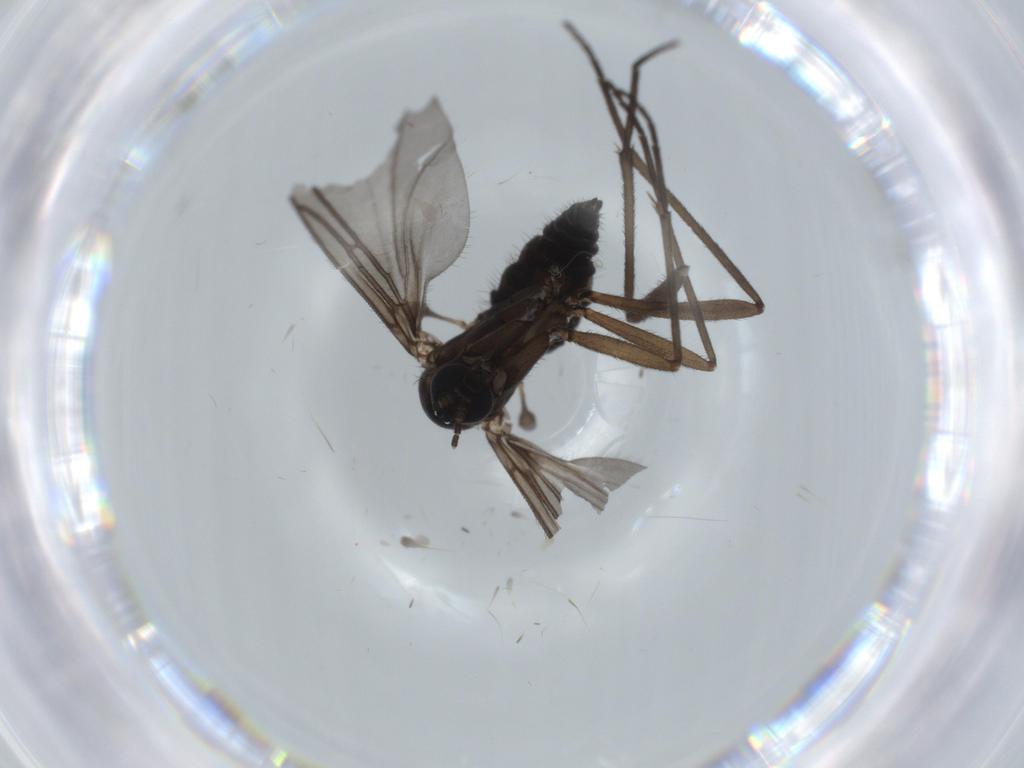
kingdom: Animalia
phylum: Arthropoda
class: Insecta
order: Diptera
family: Sciaridae
